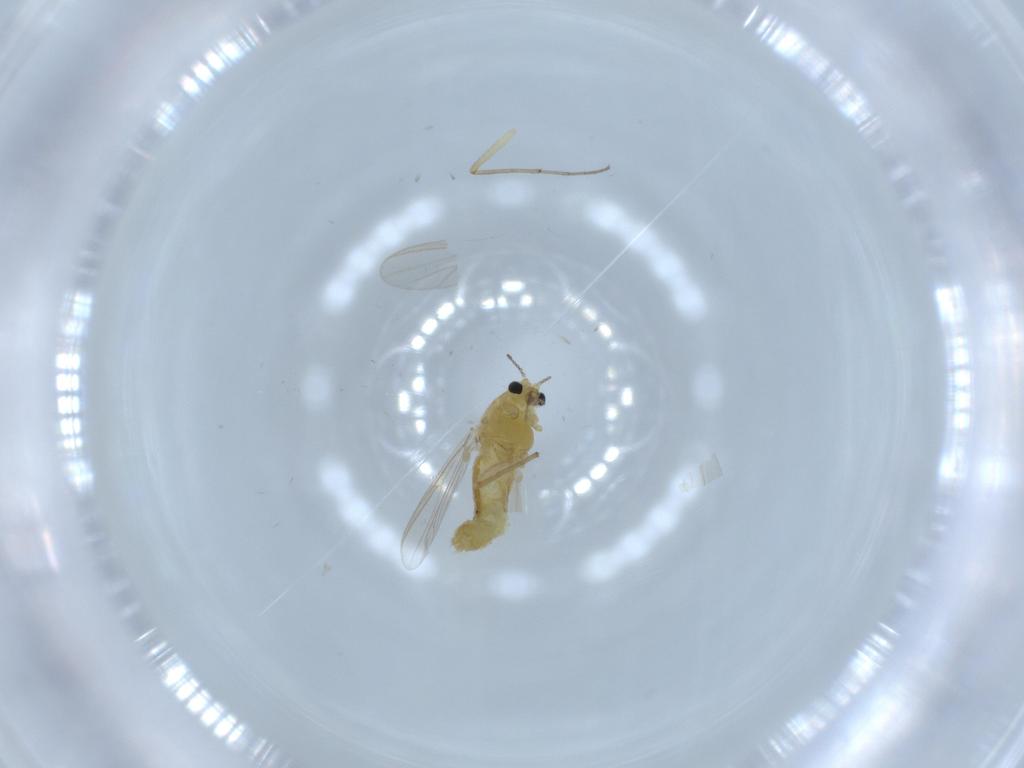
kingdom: Animalia
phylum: Arthropoda
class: Insecta
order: Diptera
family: Chironomidae
